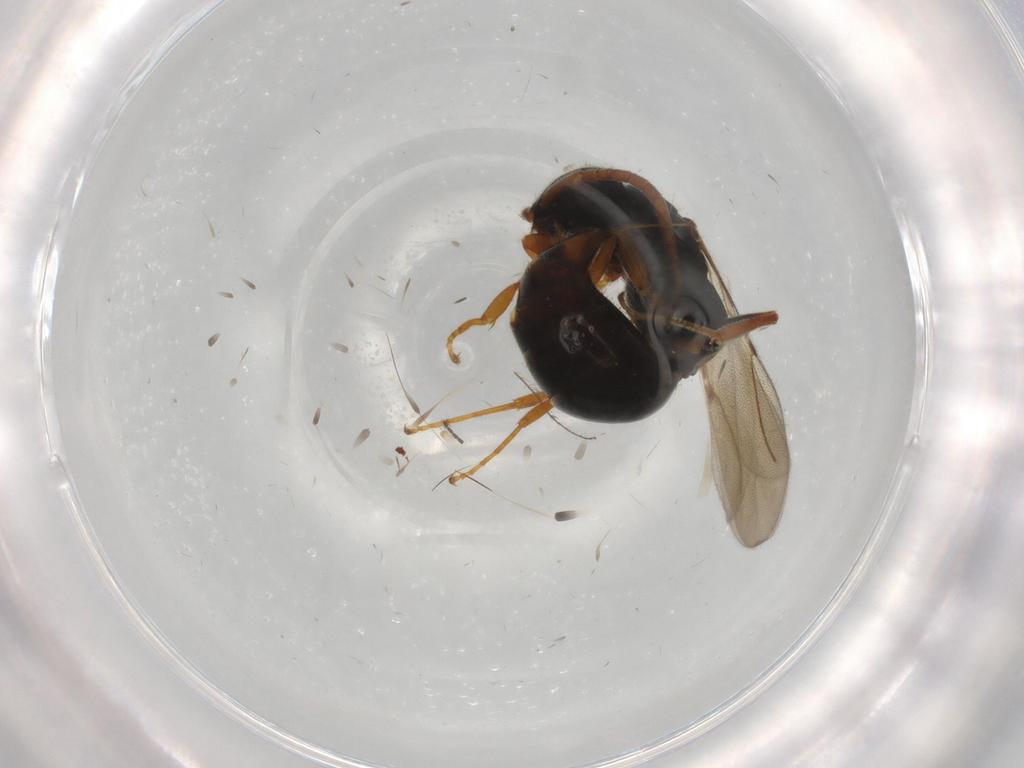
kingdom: Animalia
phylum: Arthropoda
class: Insecta
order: Hymenoptera
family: Bethylidae
